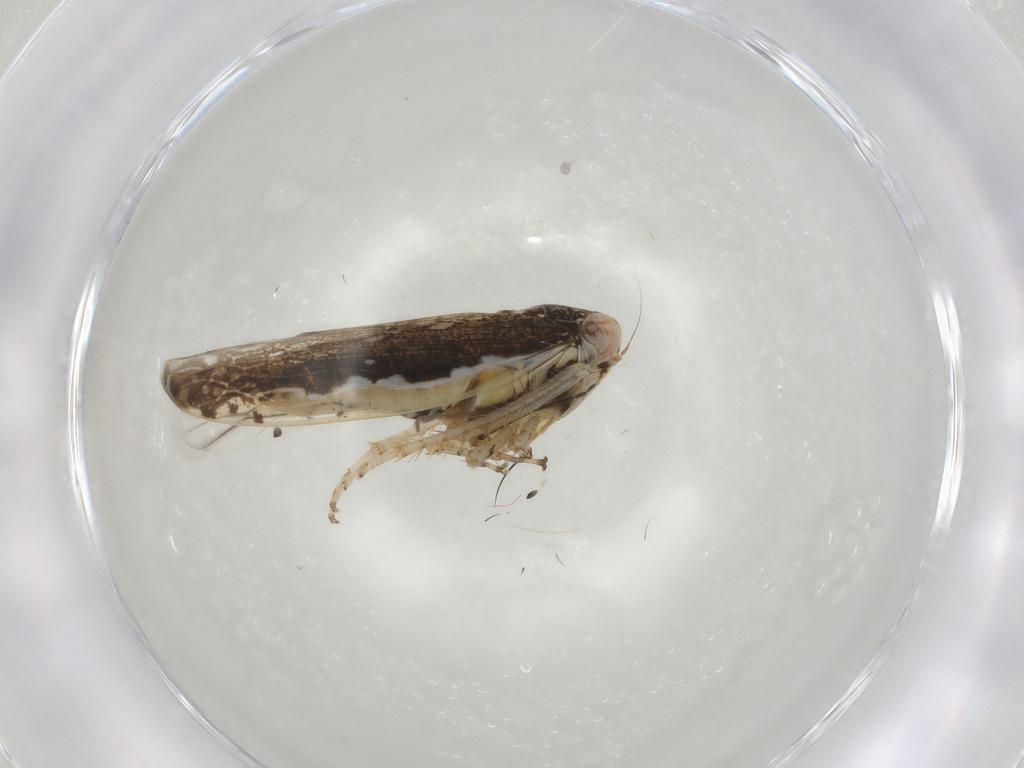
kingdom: Animalia
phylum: Arthropoda
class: Insecta
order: Hemiptera
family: Cicadellidae
